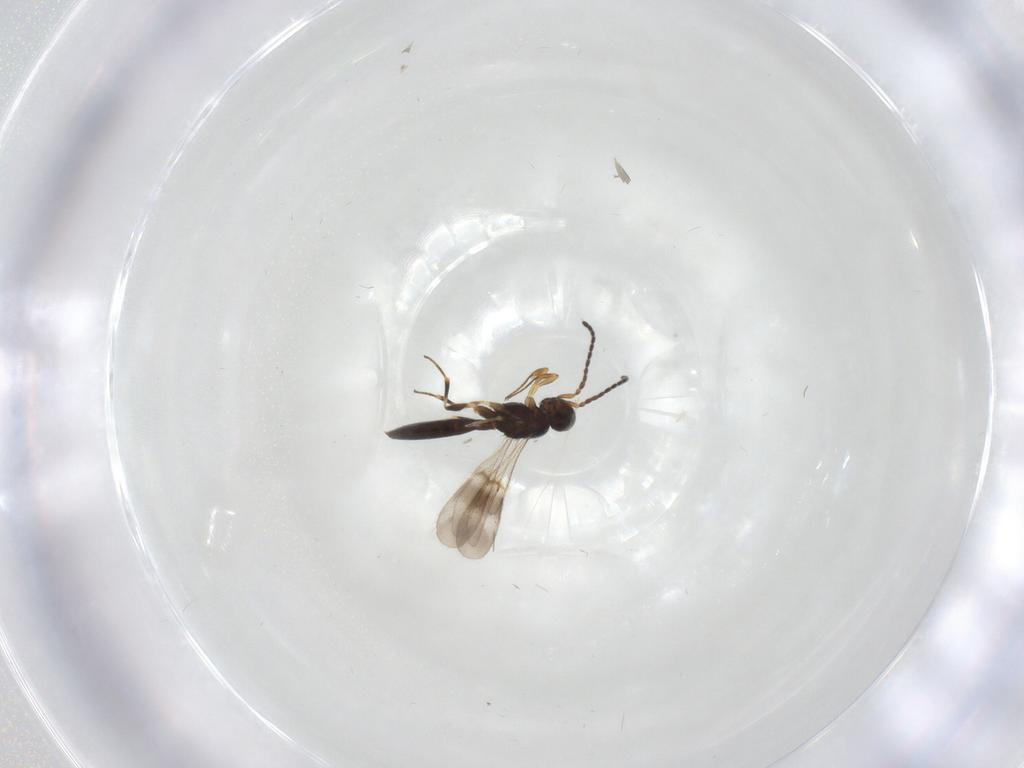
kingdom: Animalia
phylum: Arthropoda
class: Insecta
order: Hymenoptera
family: Scelionidae
